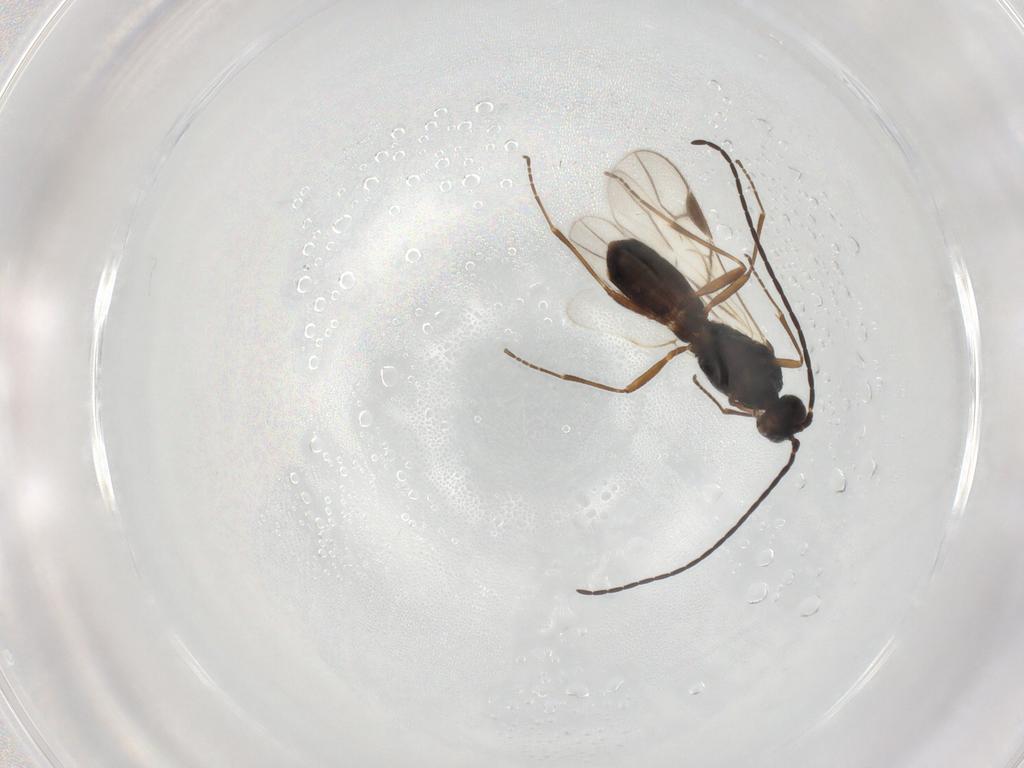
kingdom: Animalia
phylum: Arthropoda
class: Insecta
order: Hymenoptera
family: Braconidae
